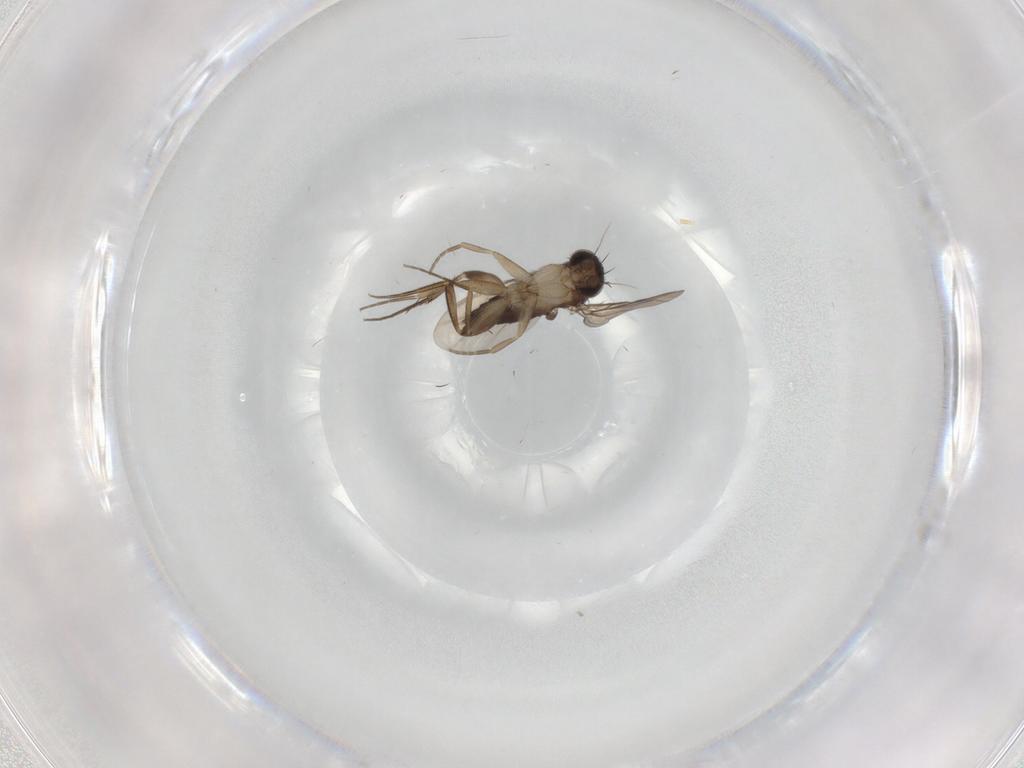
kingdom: Animalia
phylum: Arthropoda
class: Insecta
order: Diptera
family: Phoridae
